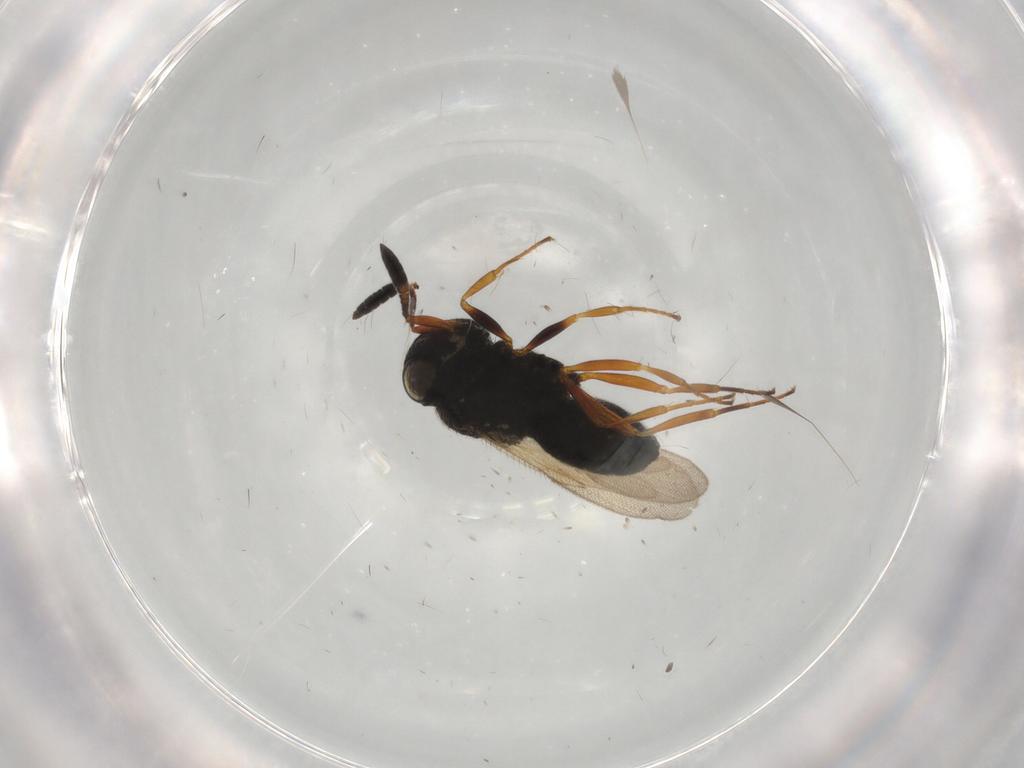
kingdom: Animalia
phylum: Arthropoda
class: Insecta
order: Hymenoptera
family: Scelionidae
